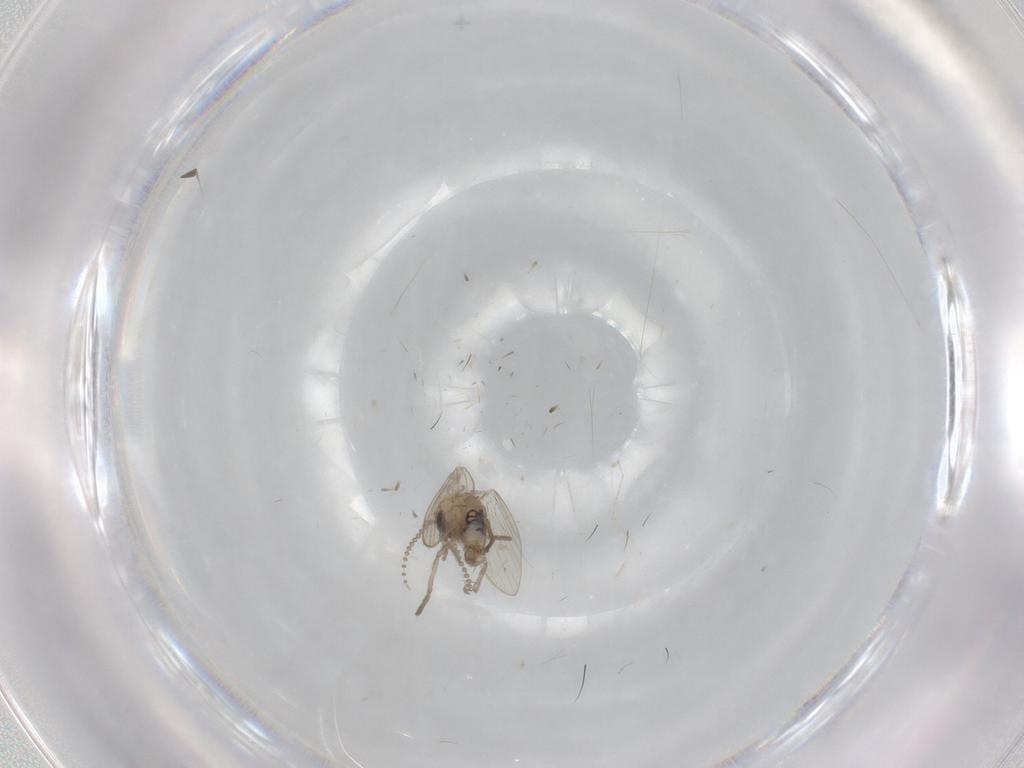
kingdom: Animalia
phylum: Arthropoda
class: Insecta
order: Diptera
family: Psychodidae
